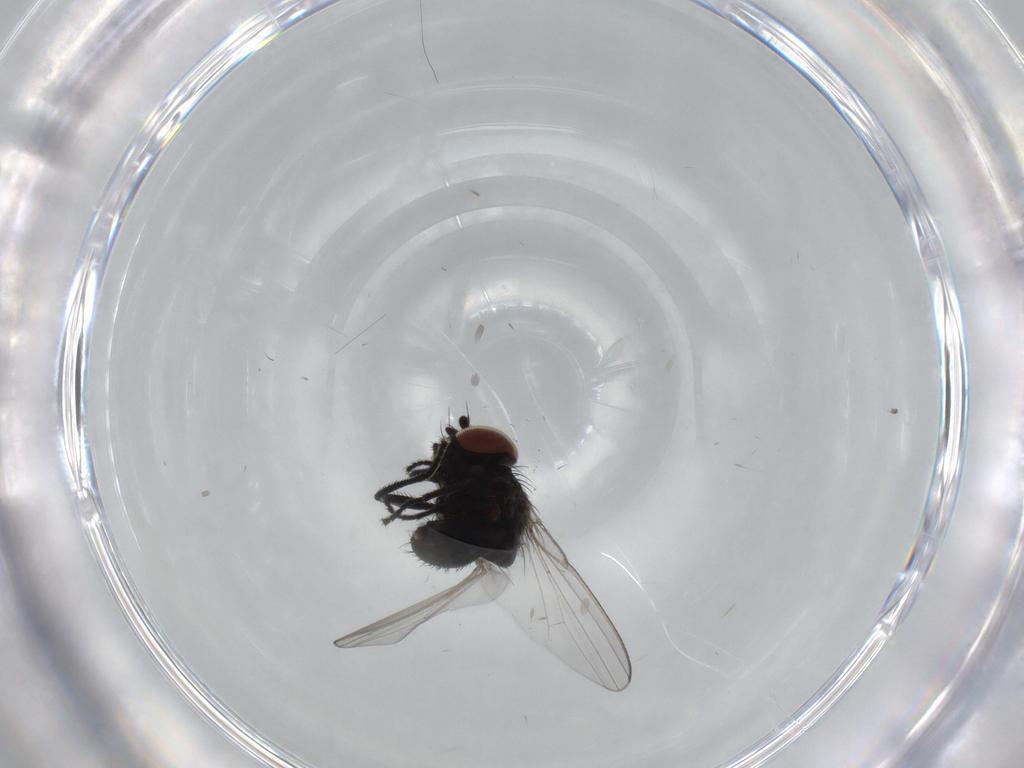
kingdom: Animalia
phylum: Arthropoda
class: Insecta
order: Diptera
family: Milichiidae
